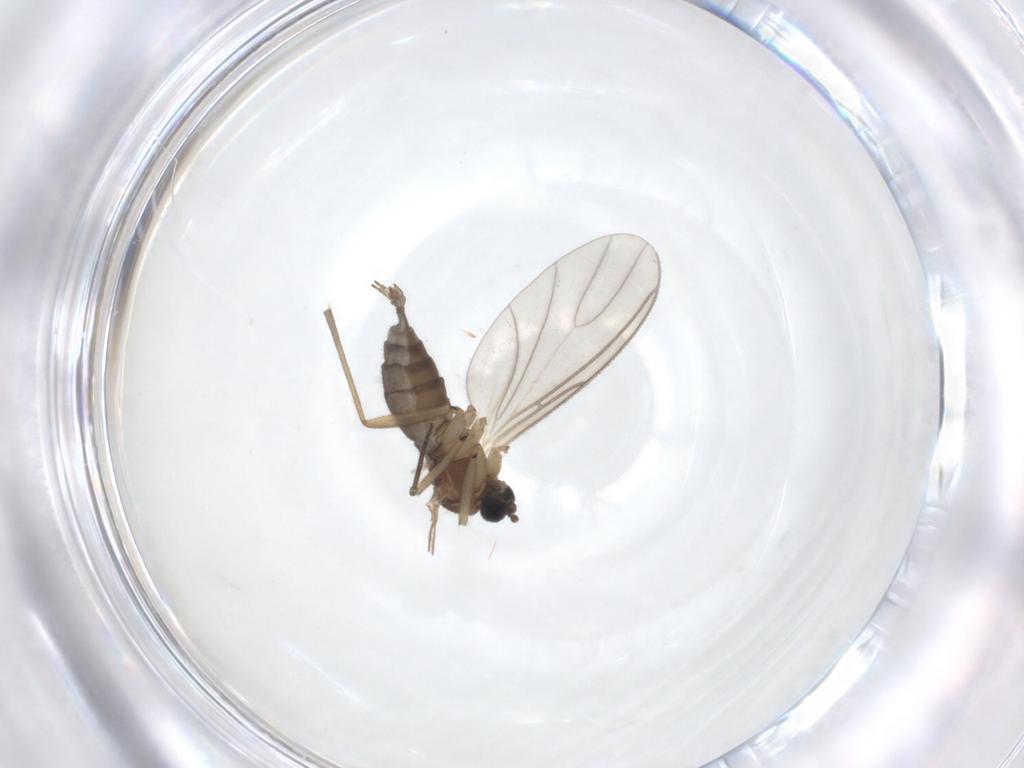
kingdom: Animalia
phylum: Arthropoda
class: Insecta
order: Diptera
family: Sciaridae
